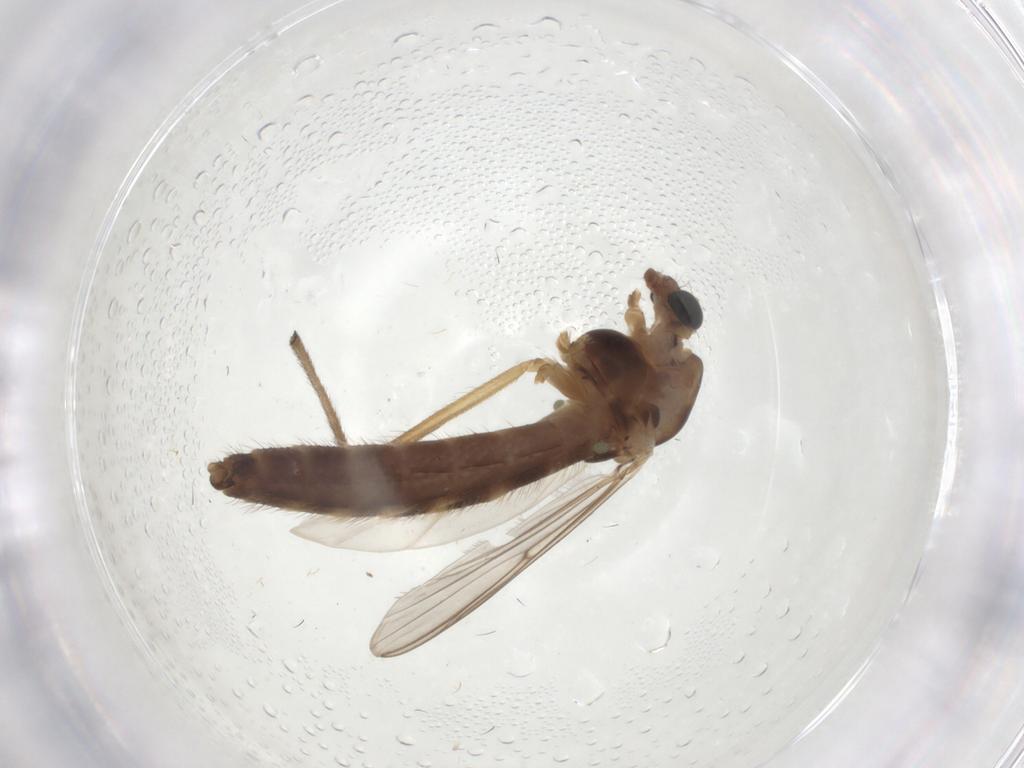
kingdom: Animalia
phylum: Arthropoda
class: Insecta
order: Diptera
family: Chironomidae
